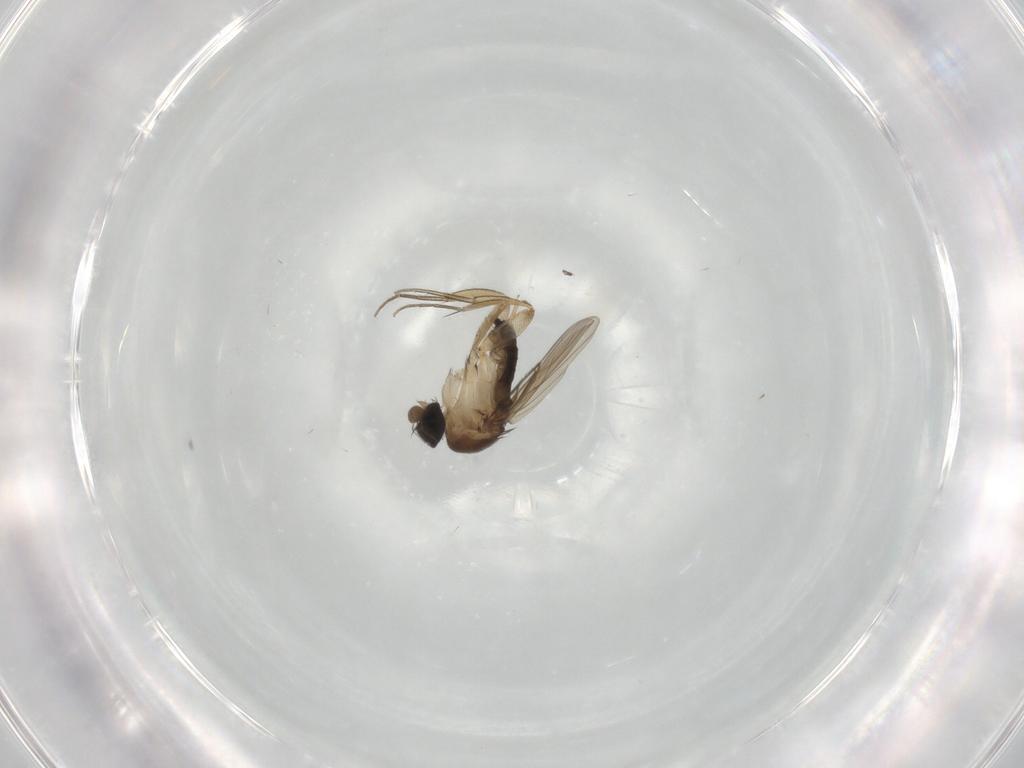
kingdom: Animalia
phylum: Arthropoda
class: Insecta
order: Diptera
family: Phoridae
